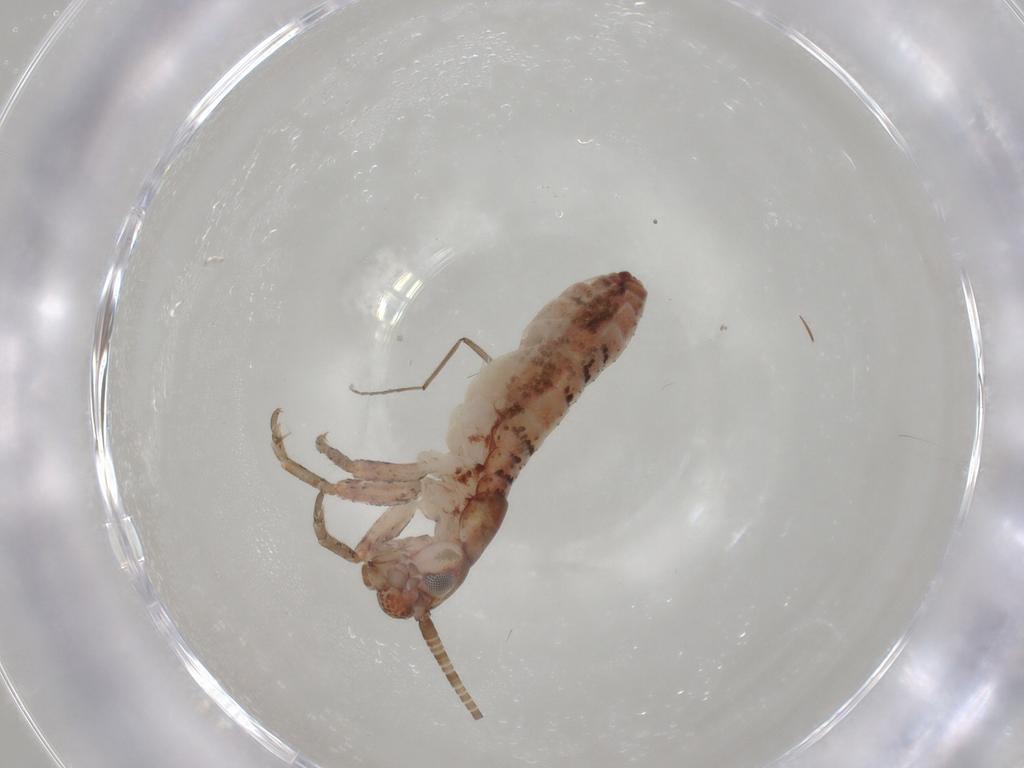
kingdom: Animalia
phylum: Arthropoda
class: Insecta
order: Orthoptera
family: Mogoplistidae
